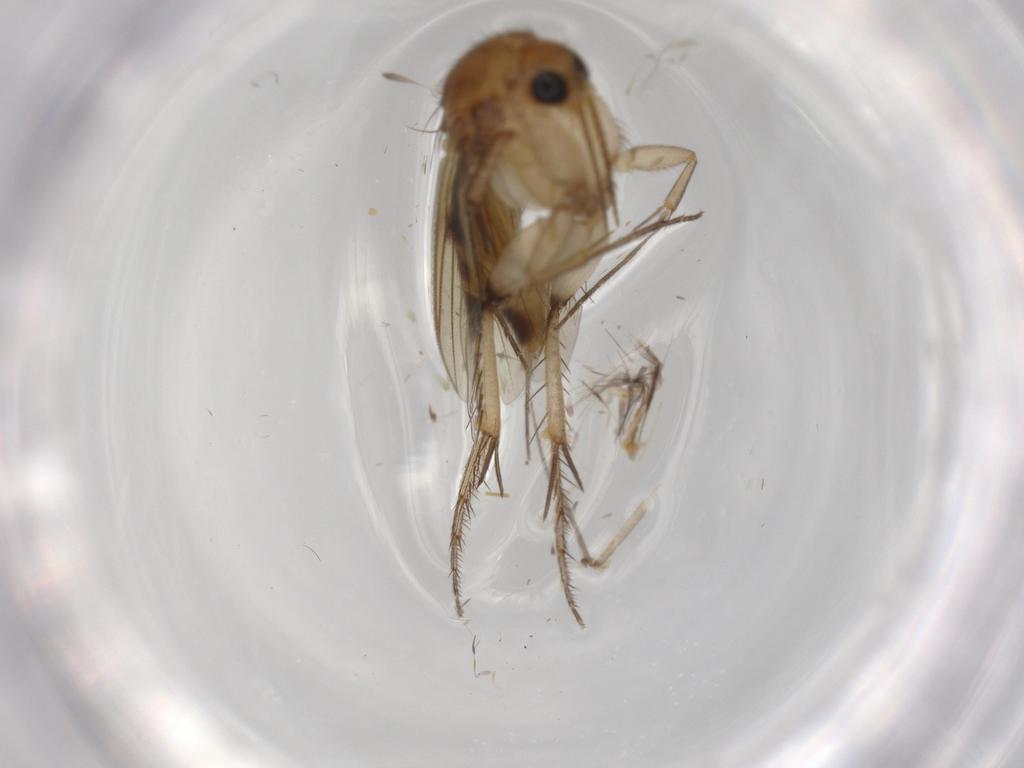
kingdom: Animalia
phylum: Arthropoda
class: Insecta
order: Diptera
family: Sciaridae
